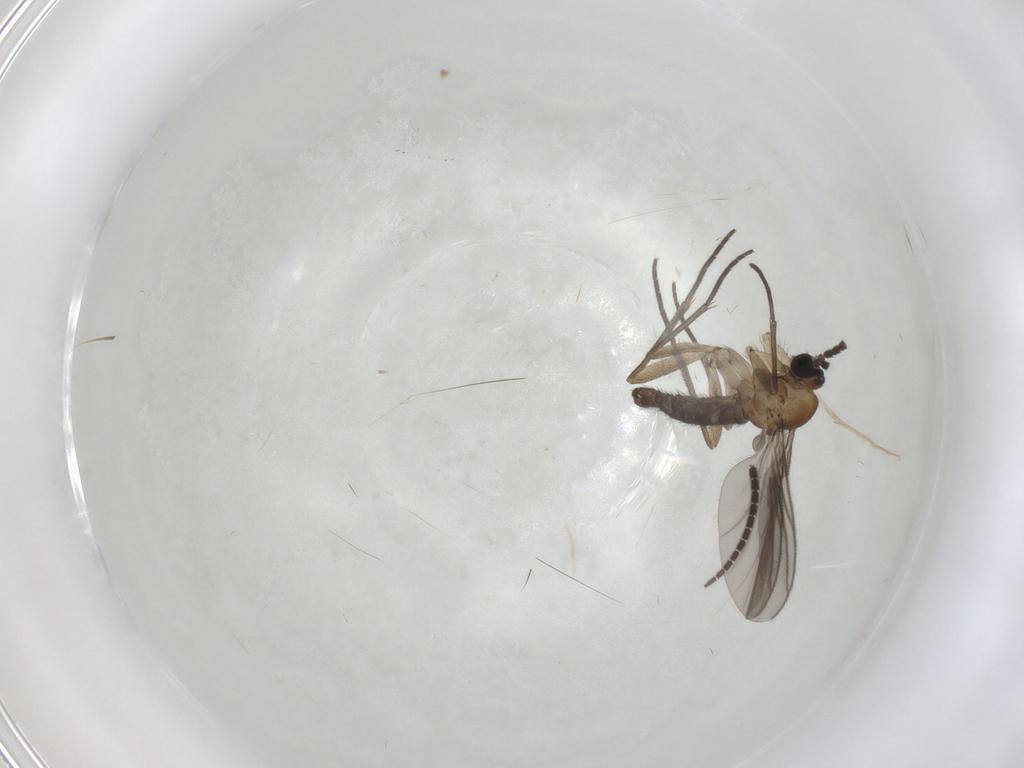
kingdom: Animalia
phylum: Arthropoda
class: Insecta
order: Diptera
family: Sciaridae
